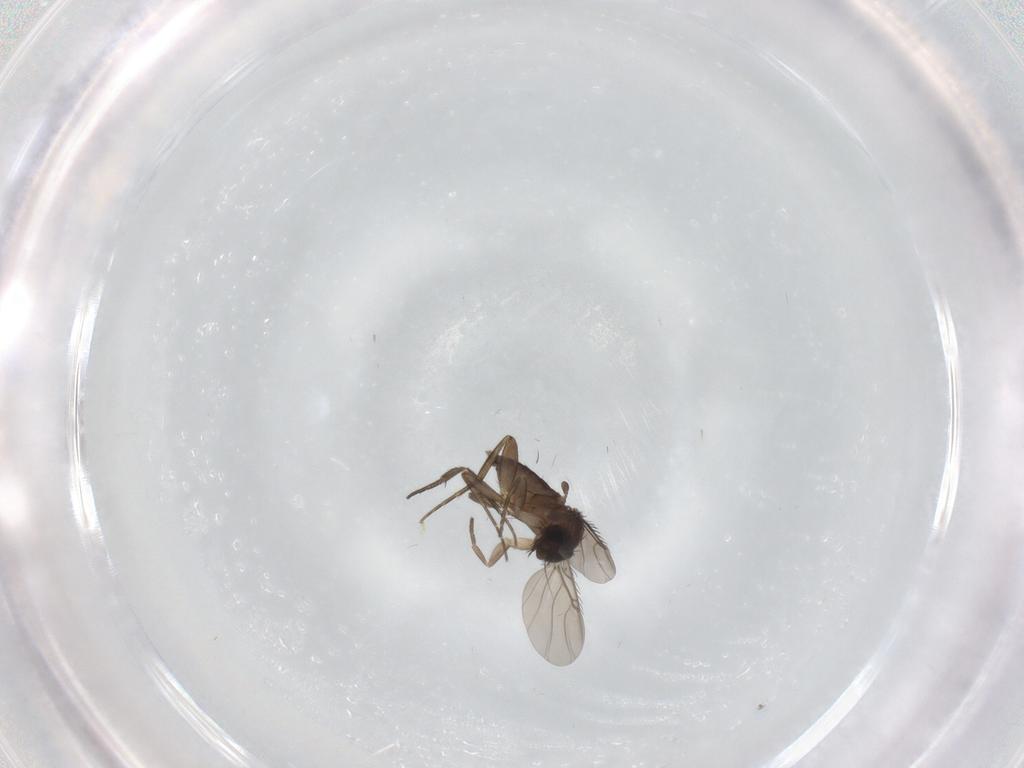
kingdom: Animalia
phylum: Arthropoda
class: Insecta
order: Diptera
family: Phoridae
